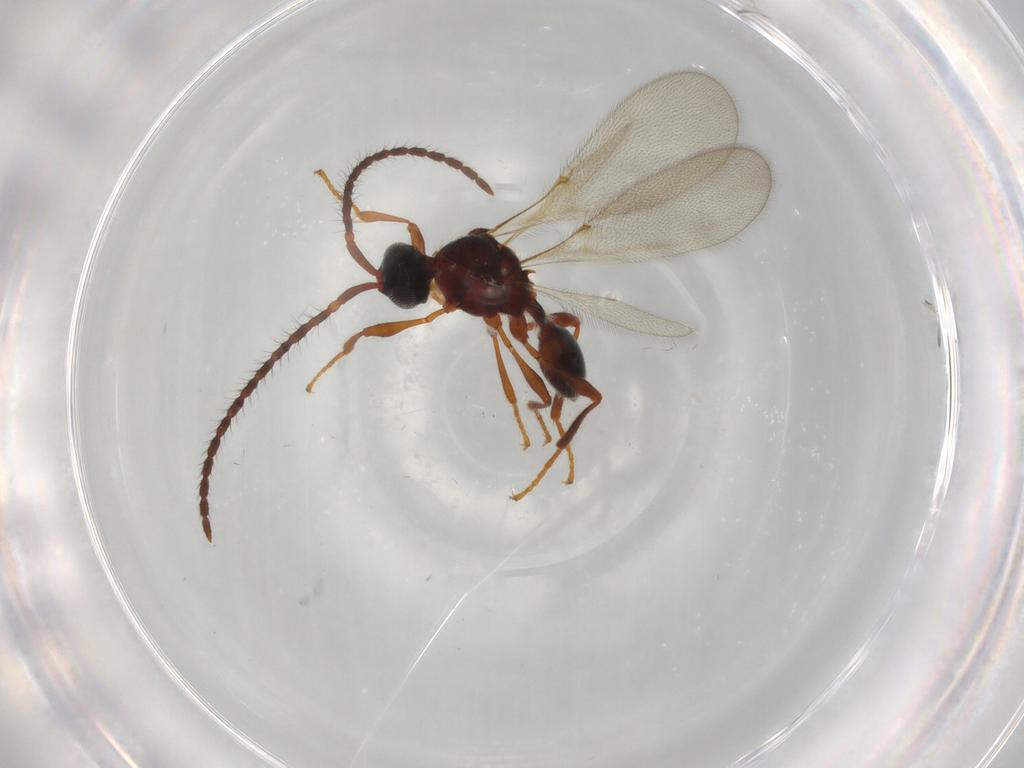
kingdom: Animalia
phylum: Arthropoda
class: Insecta
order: Hymenoptera
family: Diapriidae
